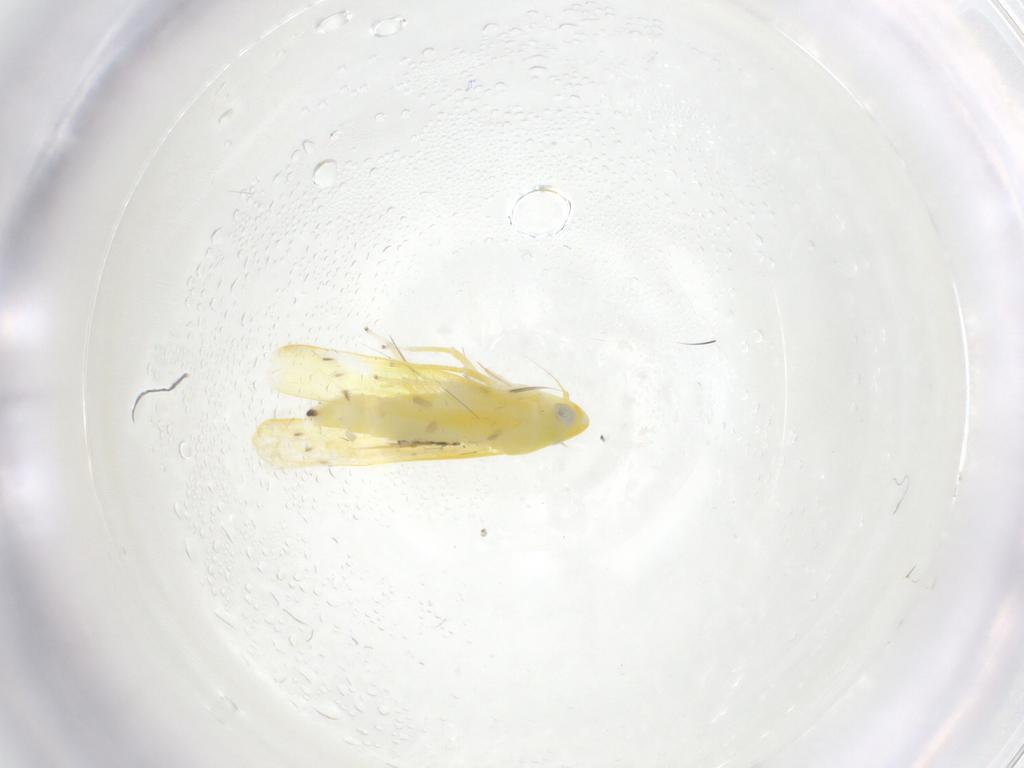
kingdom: Animalia
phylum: Arthropoda
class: Insecta
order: Hemiptera
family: Cicadellidae
